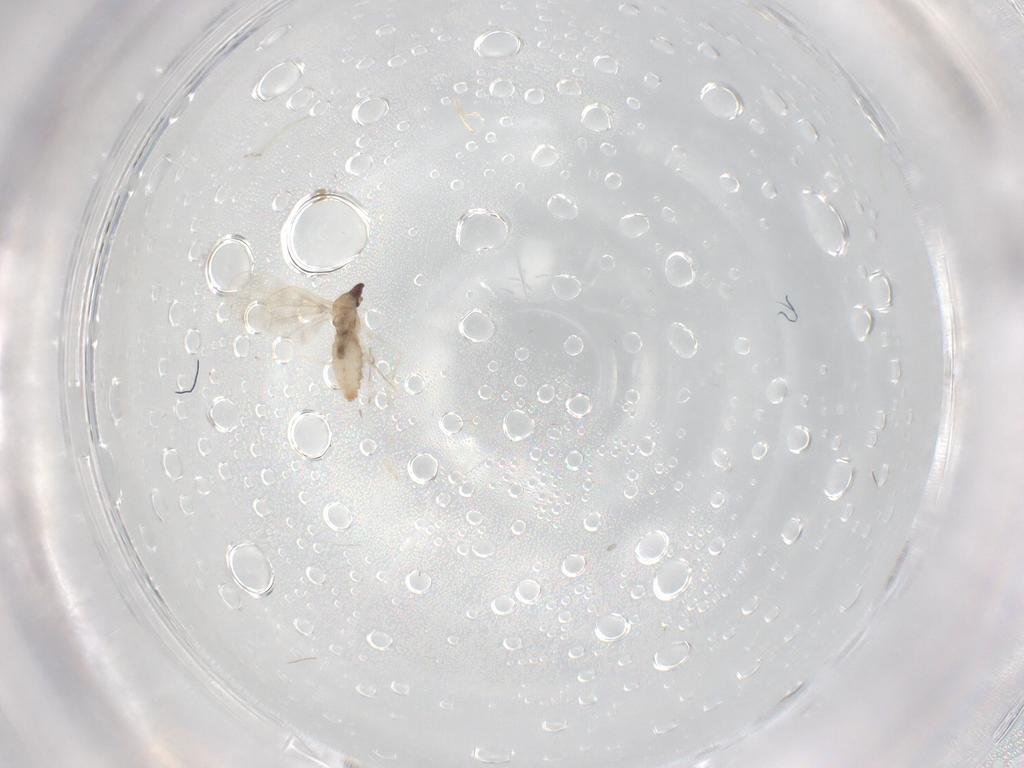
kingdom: Animalia
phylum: Arthropoda
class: Insecta
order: Diptera
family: Cecidomyiidae
